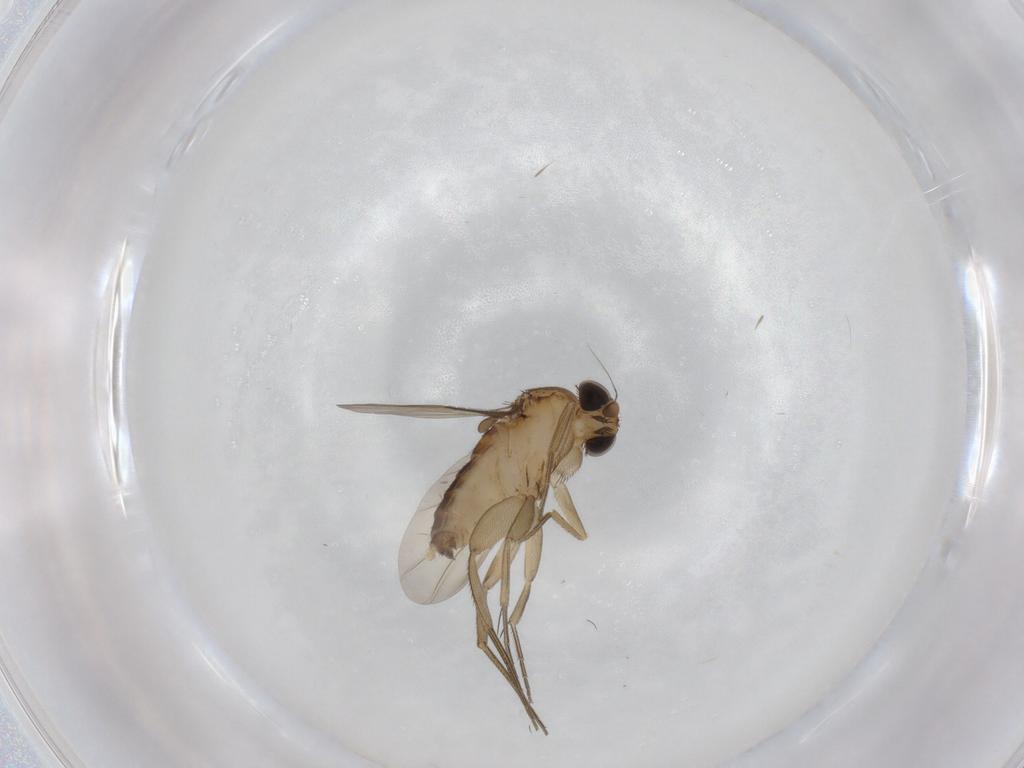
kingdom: Animalia
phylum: Arthropoda
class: Insecta
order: Diptera
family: Phoridae
